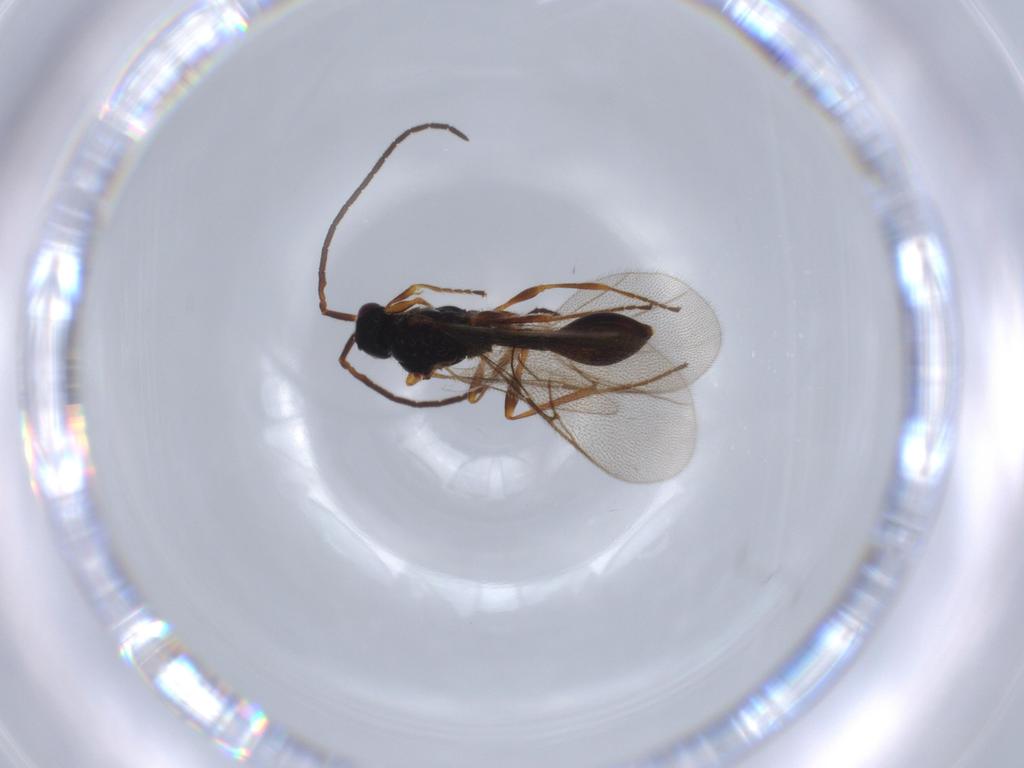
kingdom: Animalia
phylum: Arthropoda
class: Insecta
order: Hymenoptera
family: Diapriidae
